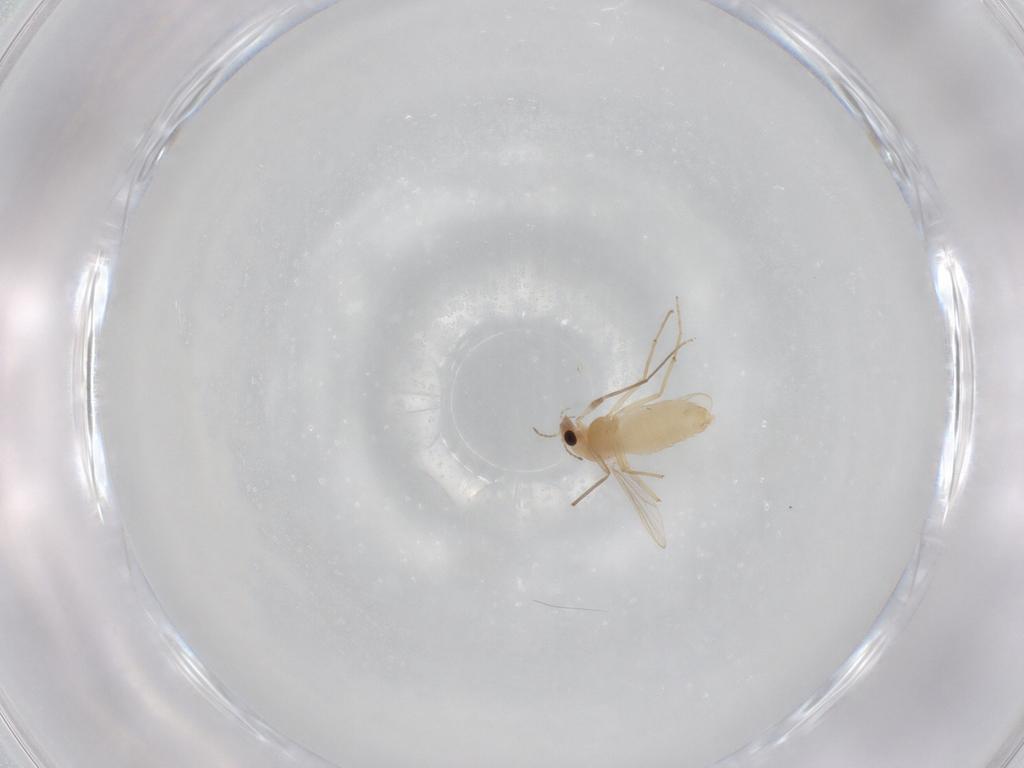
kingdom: Animalia
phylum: Arthropoda
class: Insecta
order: Diptera
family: Chironomidae
